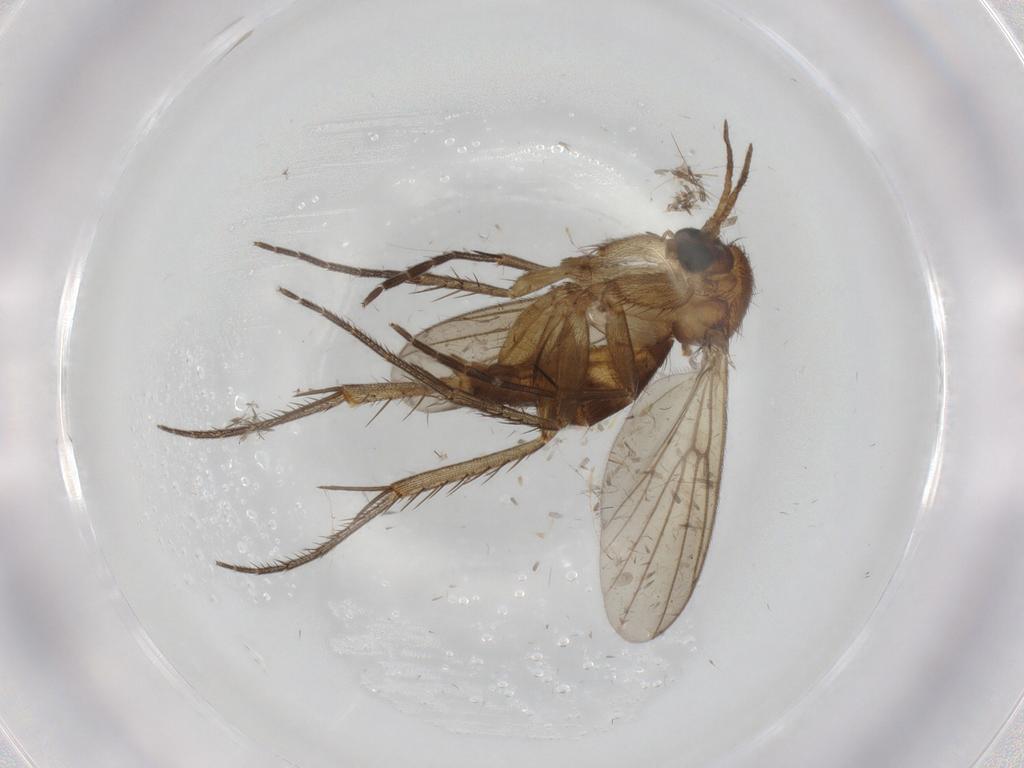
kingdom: Animalia
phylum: Arthropoda
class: Insecta
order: Diptera
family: Mycetophilidae
